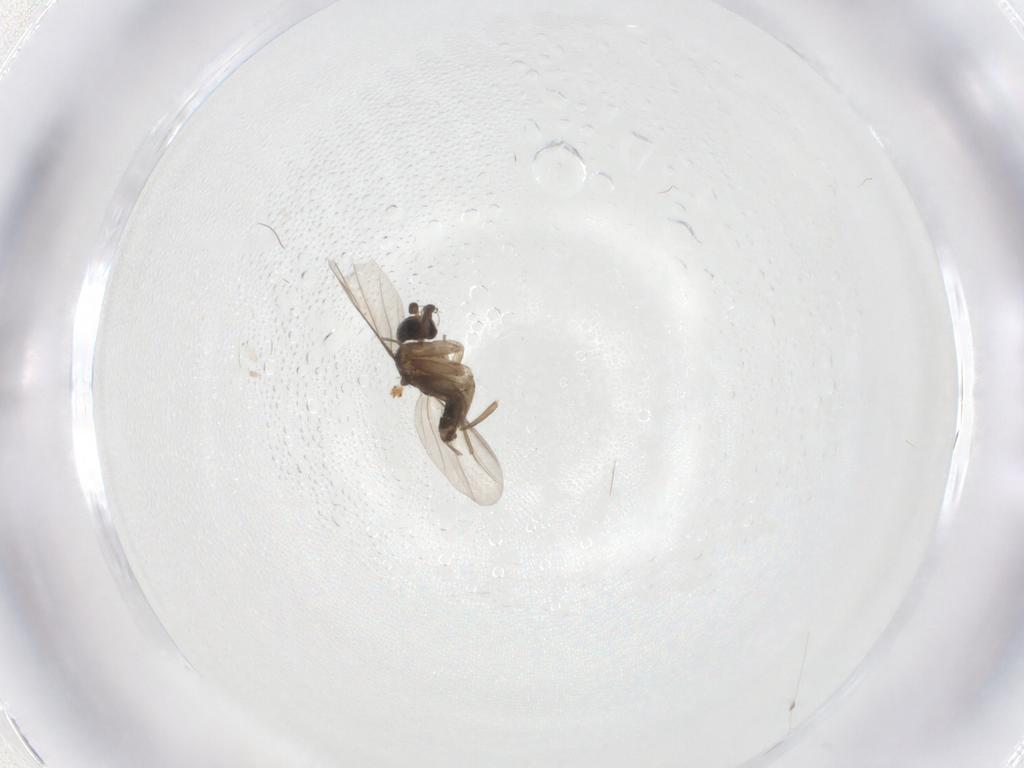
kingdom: Animalia
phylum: Arthropoda
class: Insecta
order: Diptera
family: Phoridae
